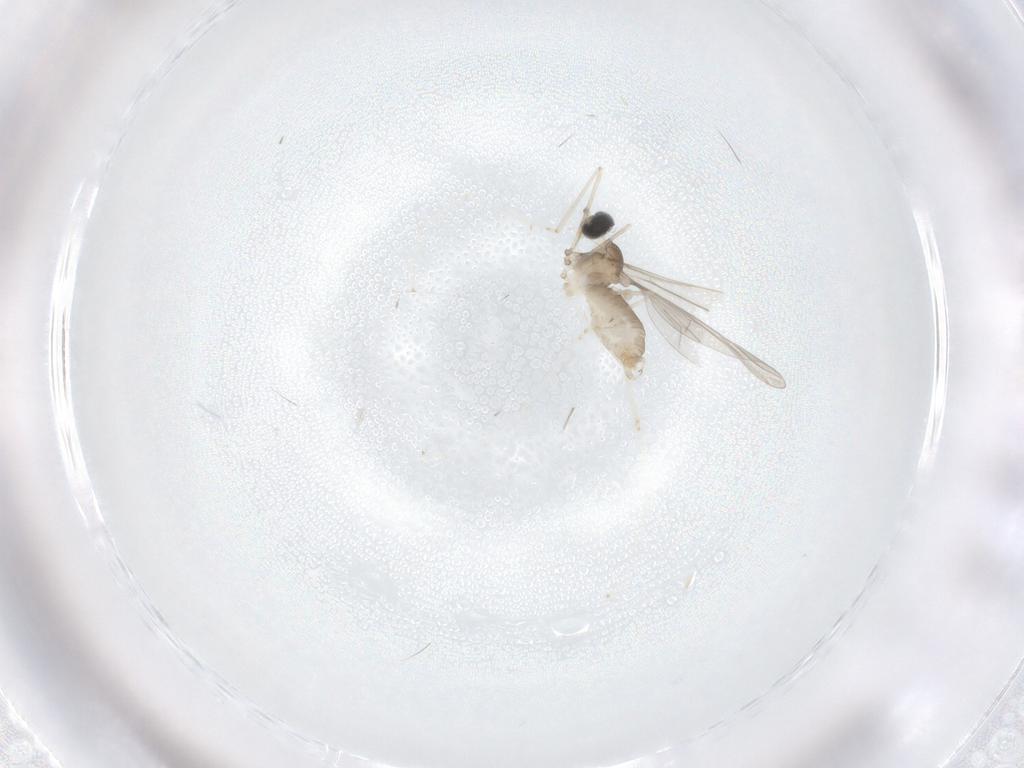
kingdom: Animalia
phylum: Arthropoda
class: Insecta
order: Diptera
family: Cecidomyiidae
